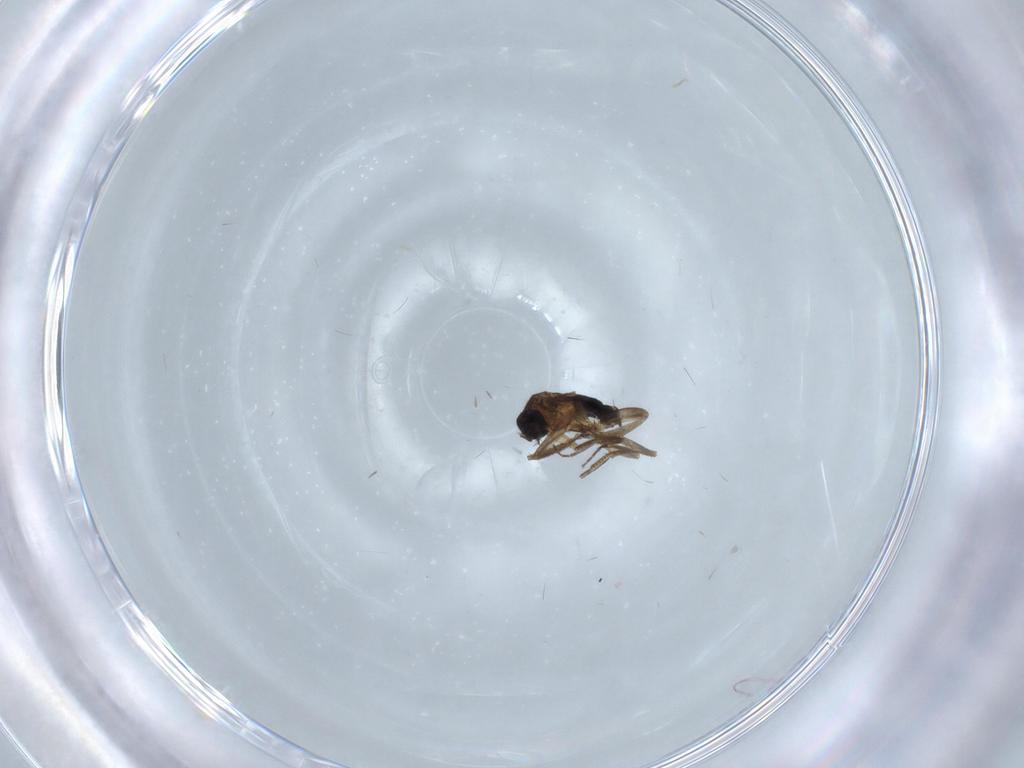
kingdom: Animalia
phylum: Arthropoda
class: Insecta
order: Diptera
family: Phoridae
